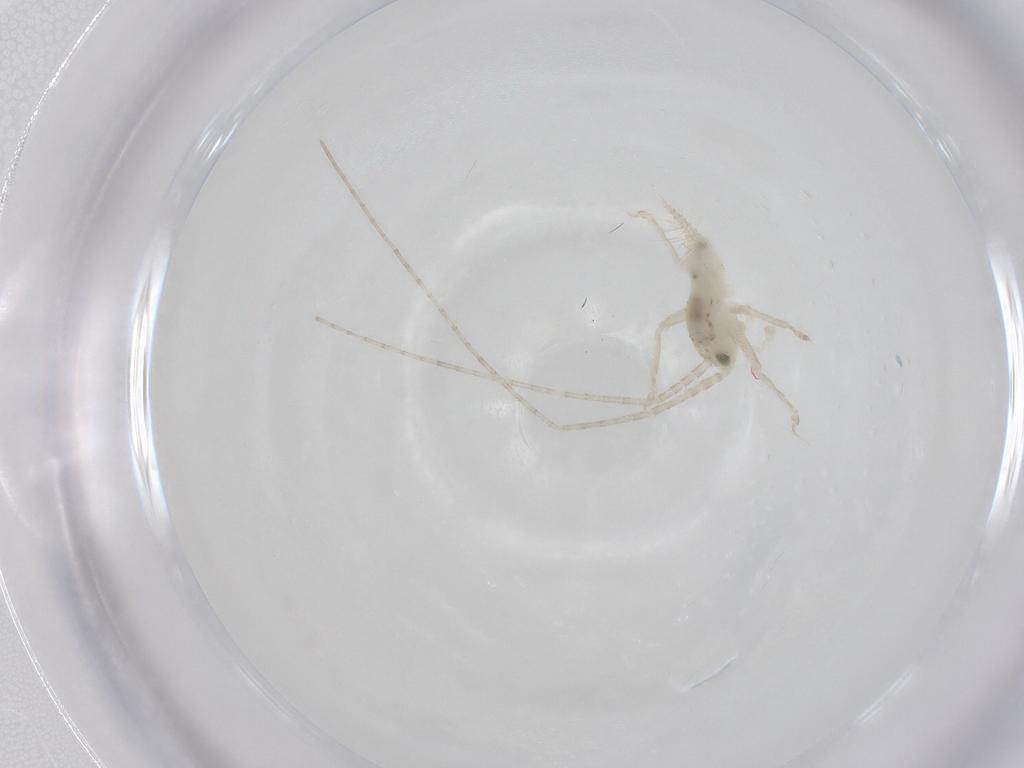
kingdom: Animalia
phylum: Arthropoda
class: Insecta
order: Orthoptera
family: Trigonidiidae
